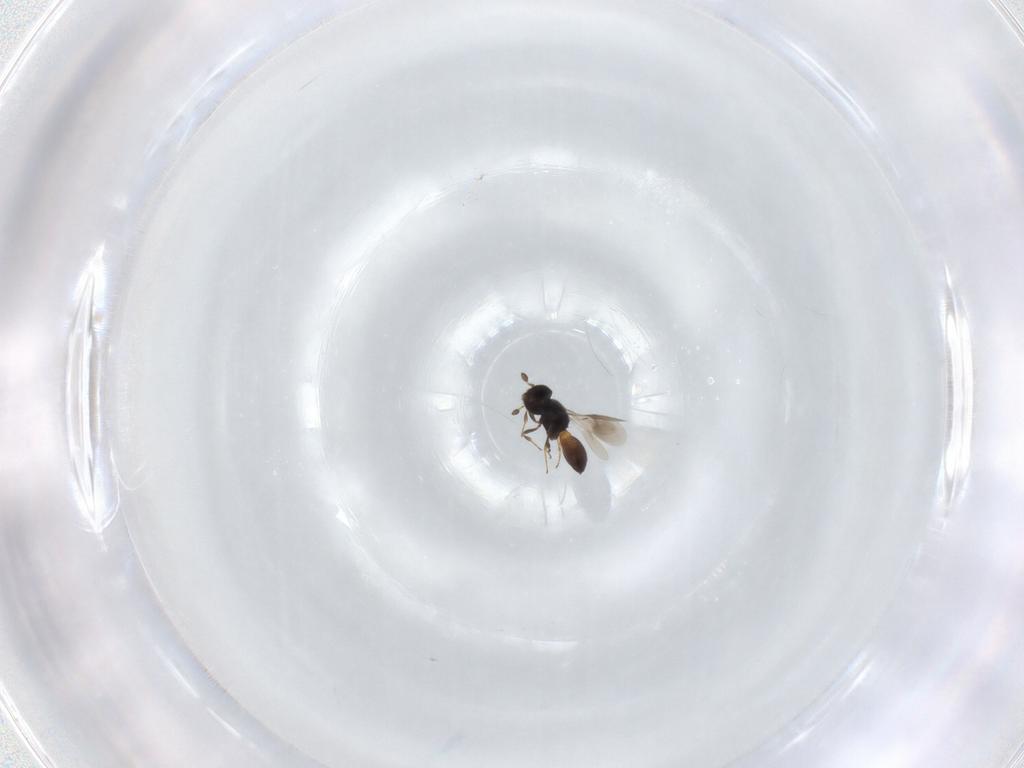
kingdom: Animalia
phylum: Arthropoda
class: Insecta
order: Hymenoptera
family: Scelionidae
